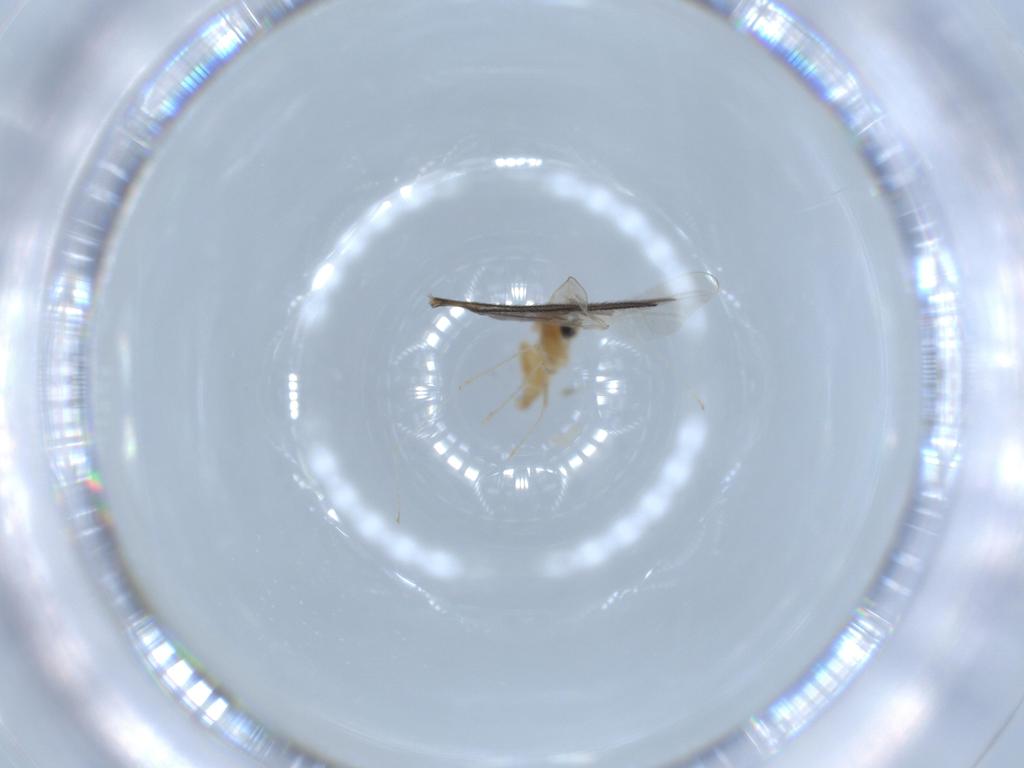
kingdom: Animalia
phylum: Arthropoda
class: Insecta
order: Diptera
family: Cecidomyiidae
